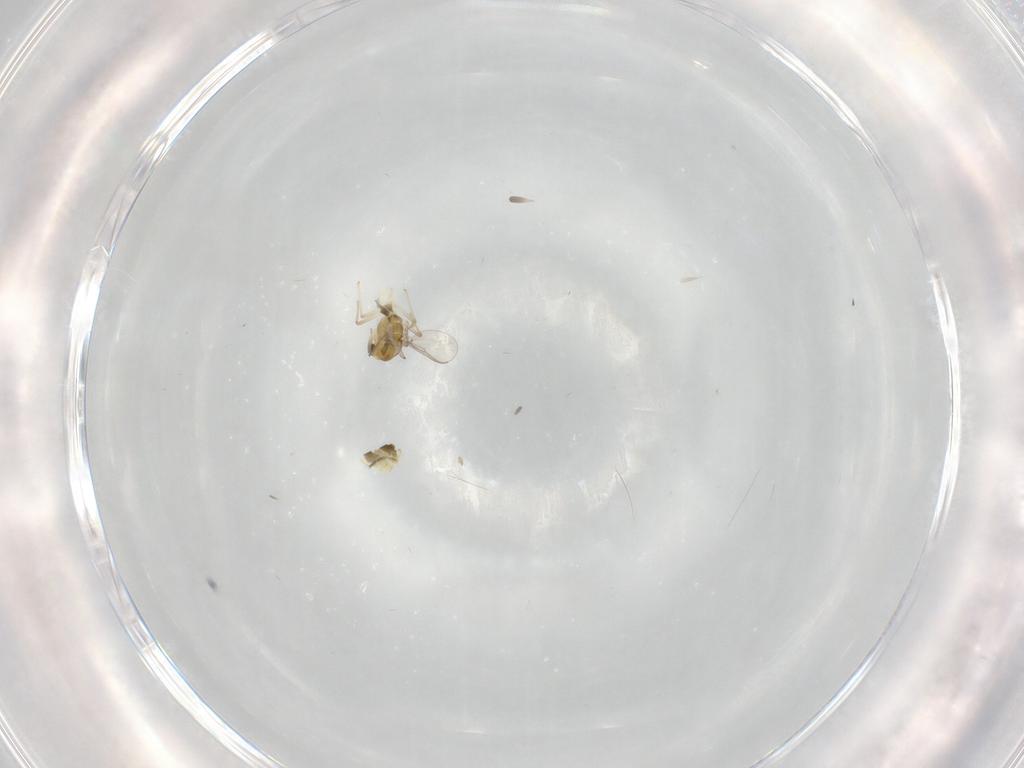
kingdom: Animalia
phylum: Arthropoda
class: Insecta
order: Diptera
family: Chironomidae
